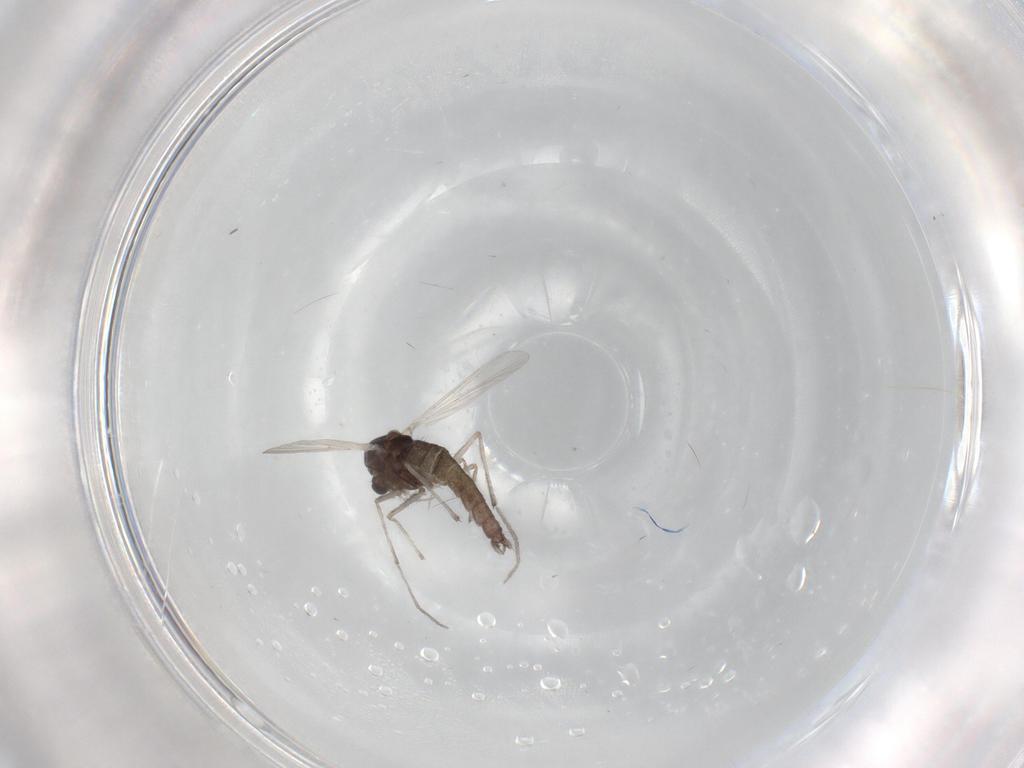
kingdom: Animalia
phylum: Arthropoda
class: Insecta
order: Diptera
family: Chironomidae
